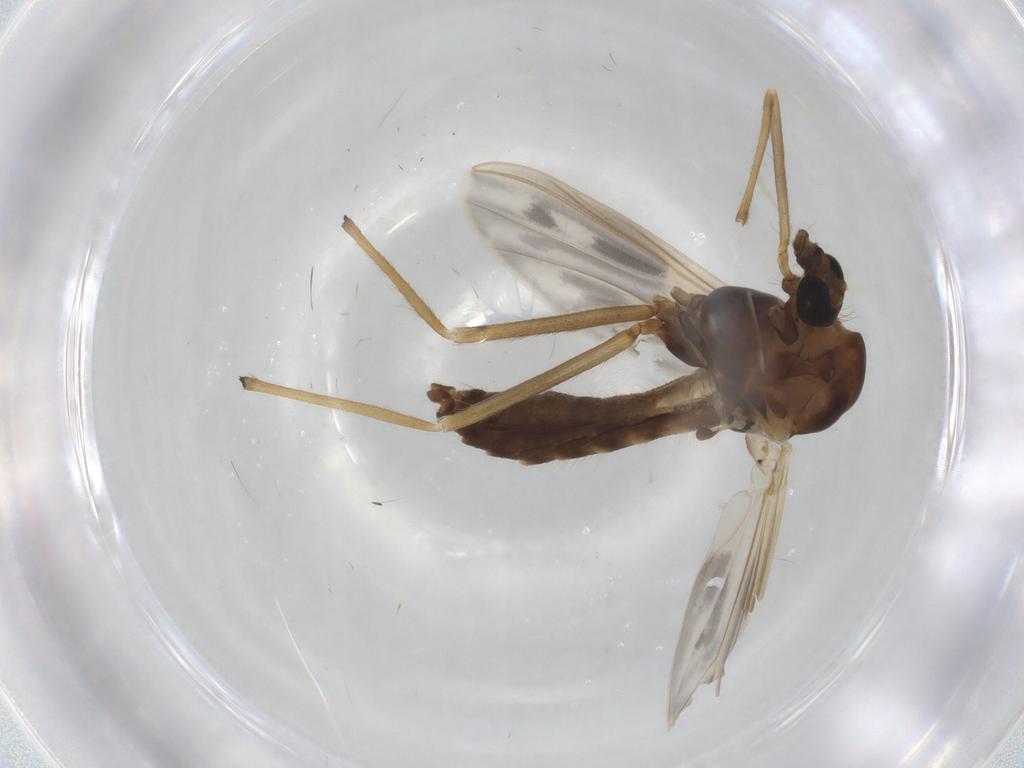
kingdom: Animalia
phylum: Arthropoda
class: Insecta
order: Diptera
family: Chironomidae
